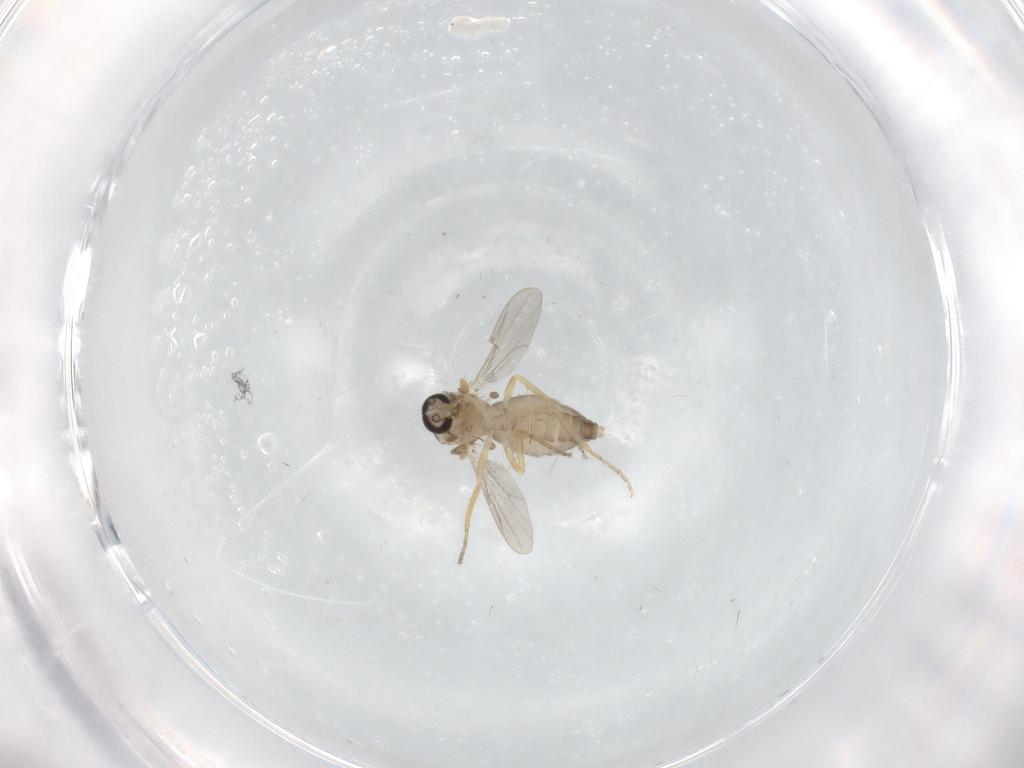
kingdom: Animalia
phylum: Arthropoda
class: Insecta
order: Diptera
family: Ceratopogonidae
